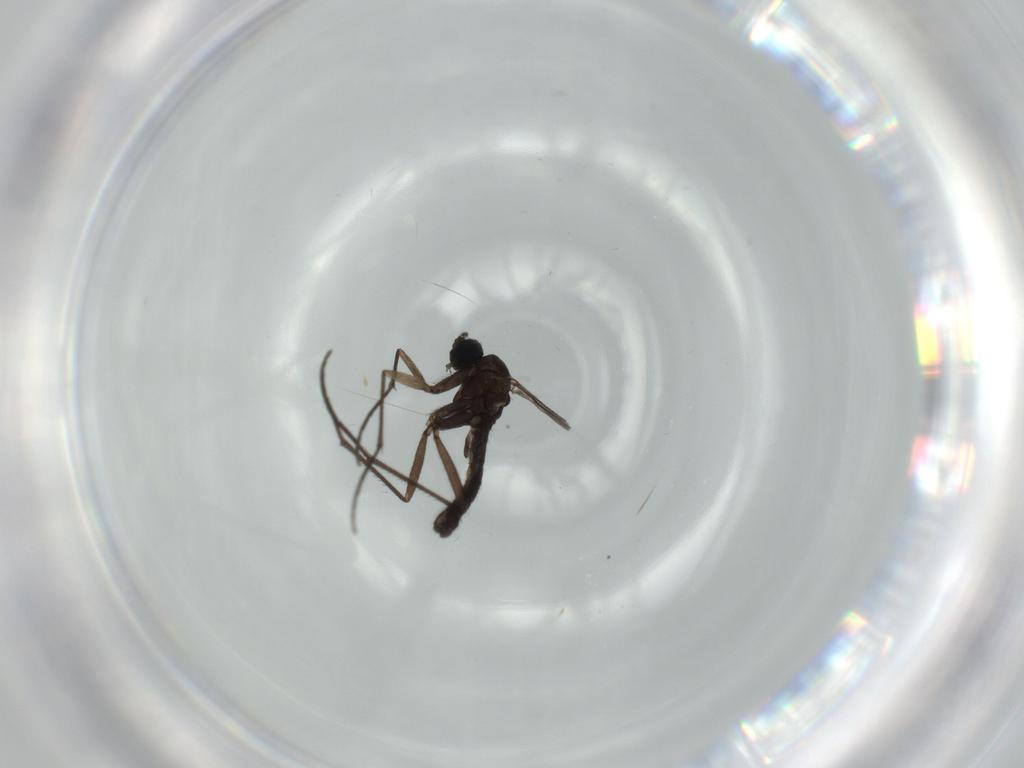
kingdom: Animalia
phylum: Arthropoda
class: Insecta
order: Diptera
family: Sciaridae
